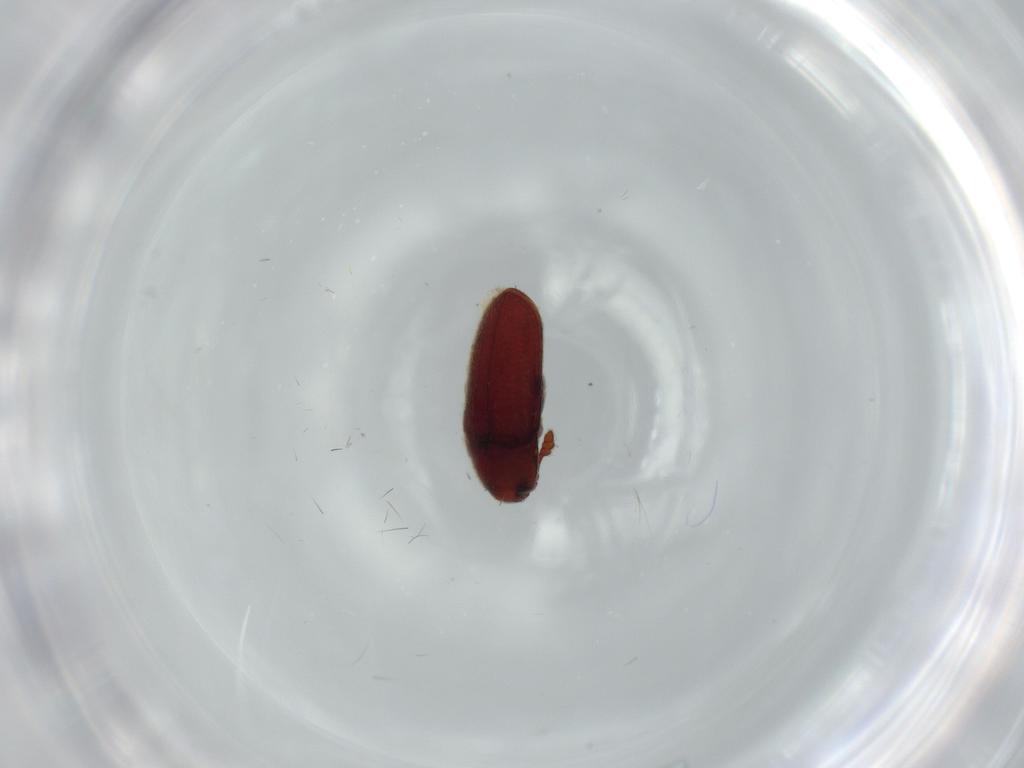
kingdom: Animalia
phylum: Arthropoda
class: Insecta
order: Coleoptera
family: Throscidae
